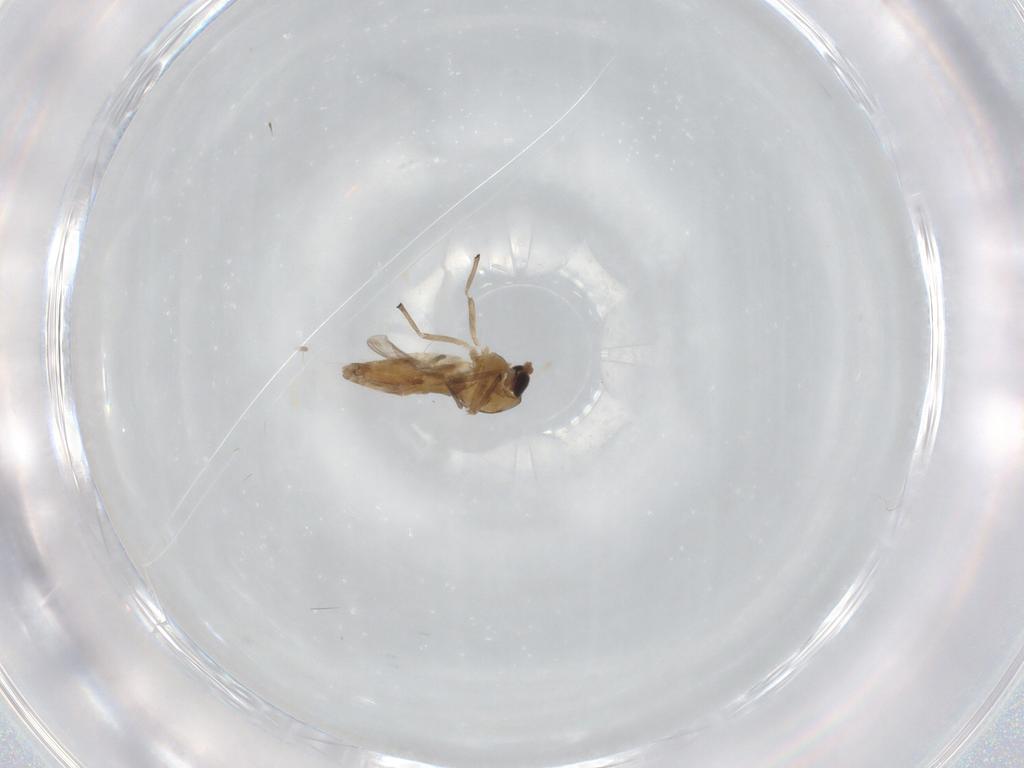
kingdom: Animalia
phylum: Arthropoda
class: Insecta
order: Diptera
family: Chironomidae
